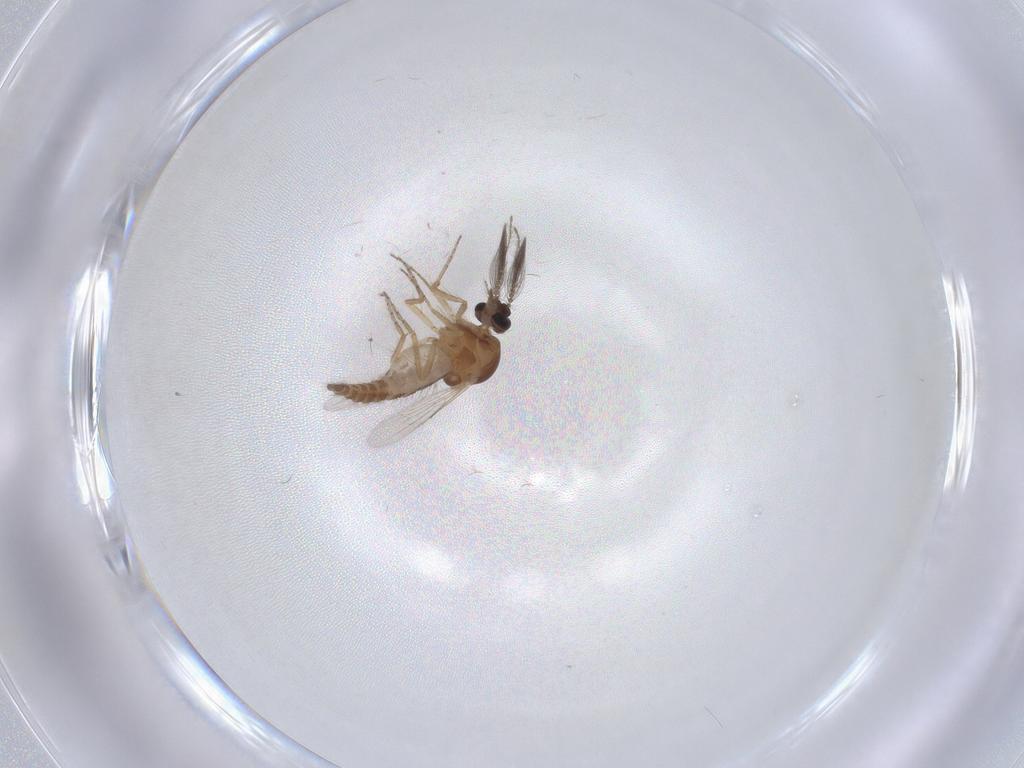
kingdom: Animalia
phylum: Arthropoda
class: Insecta
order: Diptera
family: Ceratopogonidae
